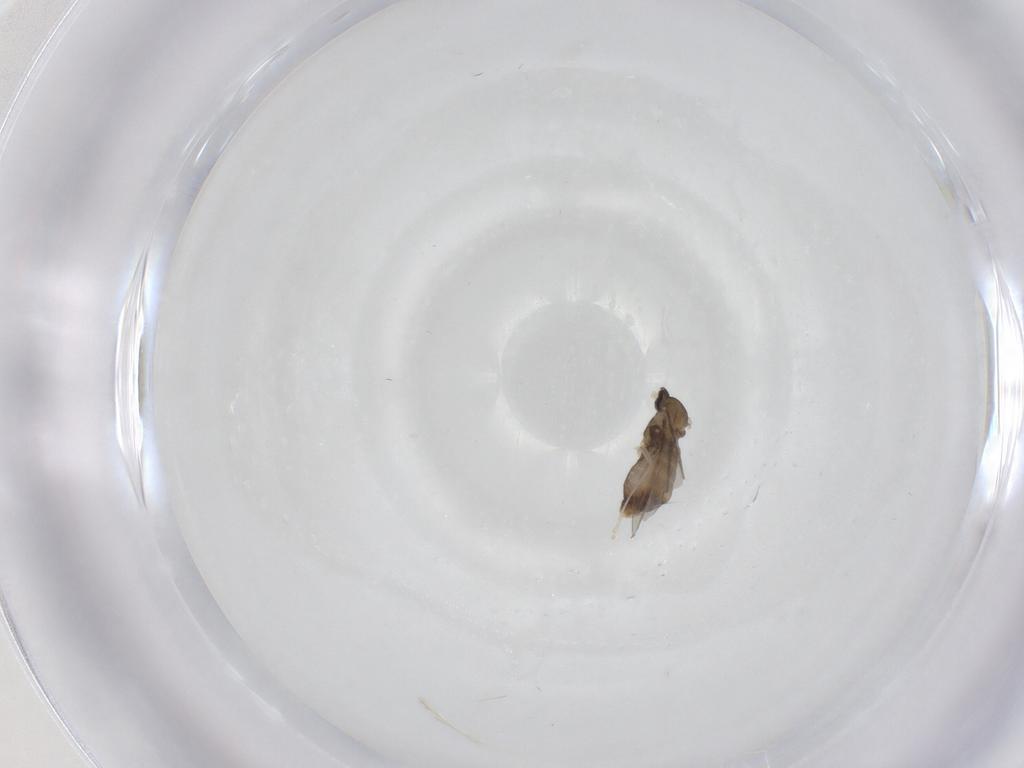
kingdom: Animalia
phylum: Arthropoda
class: Insecta
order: Diptera
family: Cecidomyiidae
